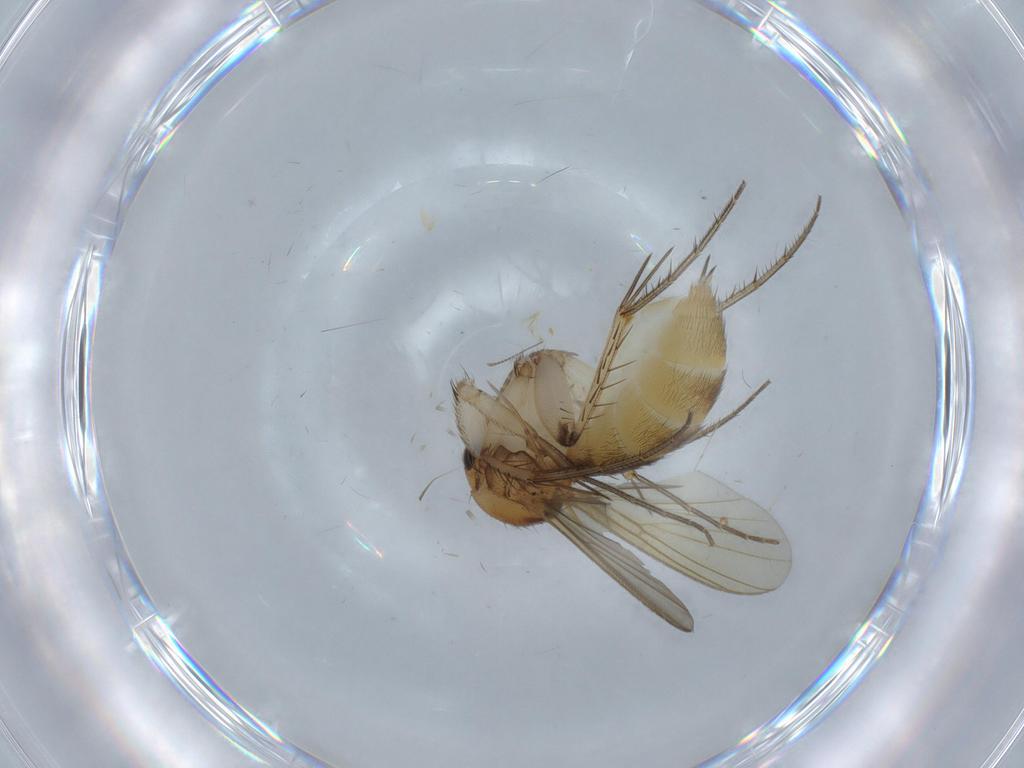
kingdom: Animalia
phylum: Arthropoda
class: Insecta
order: Diptera
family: Mycetophilidae
